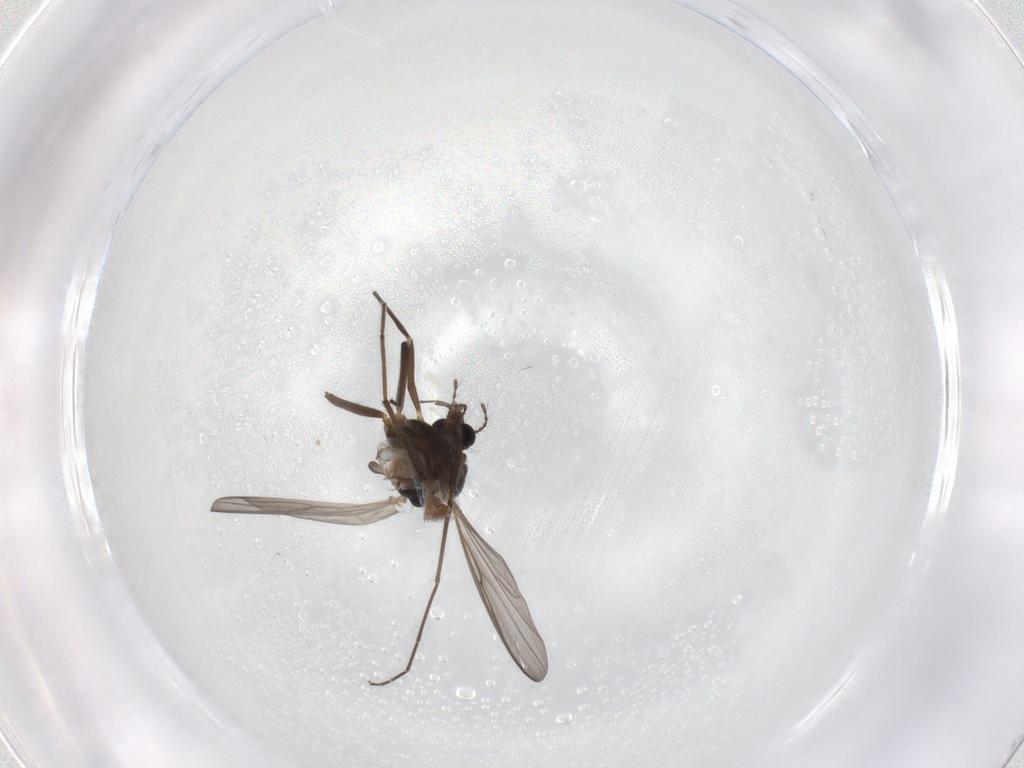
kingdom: Animalia
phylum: Arthropoda
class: Insecta
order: Diptera
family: Chironomidae
